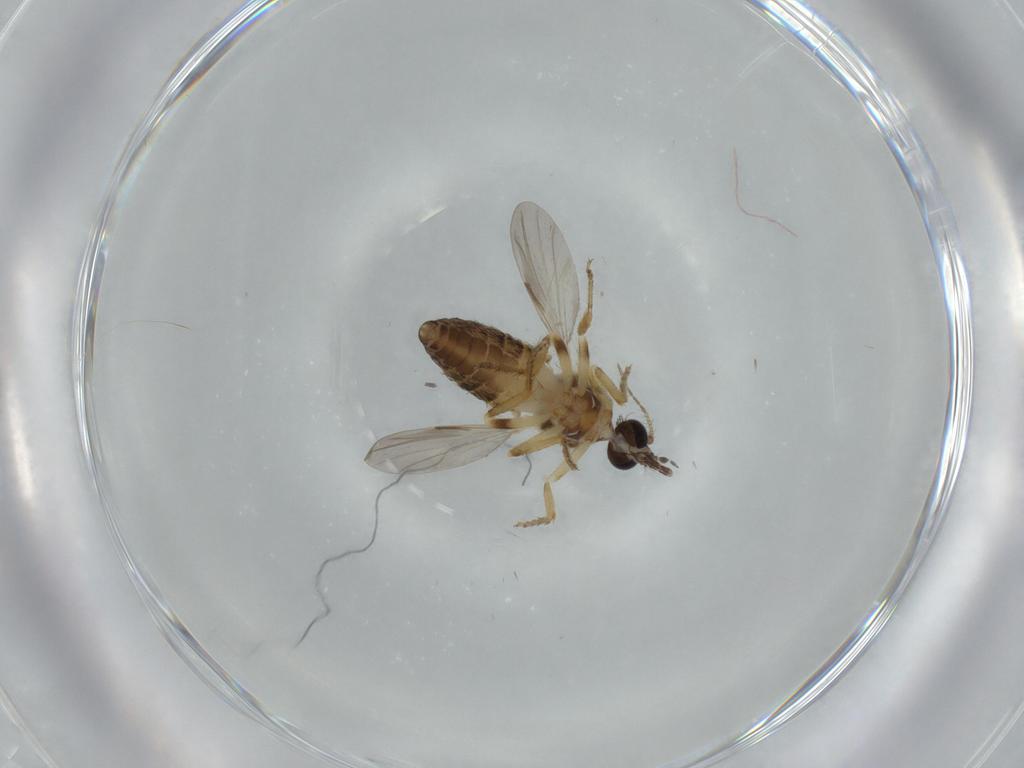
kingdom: Animalia
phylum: Arthropoda
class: Insecta
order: Diptera
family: Ceratopogonidae
